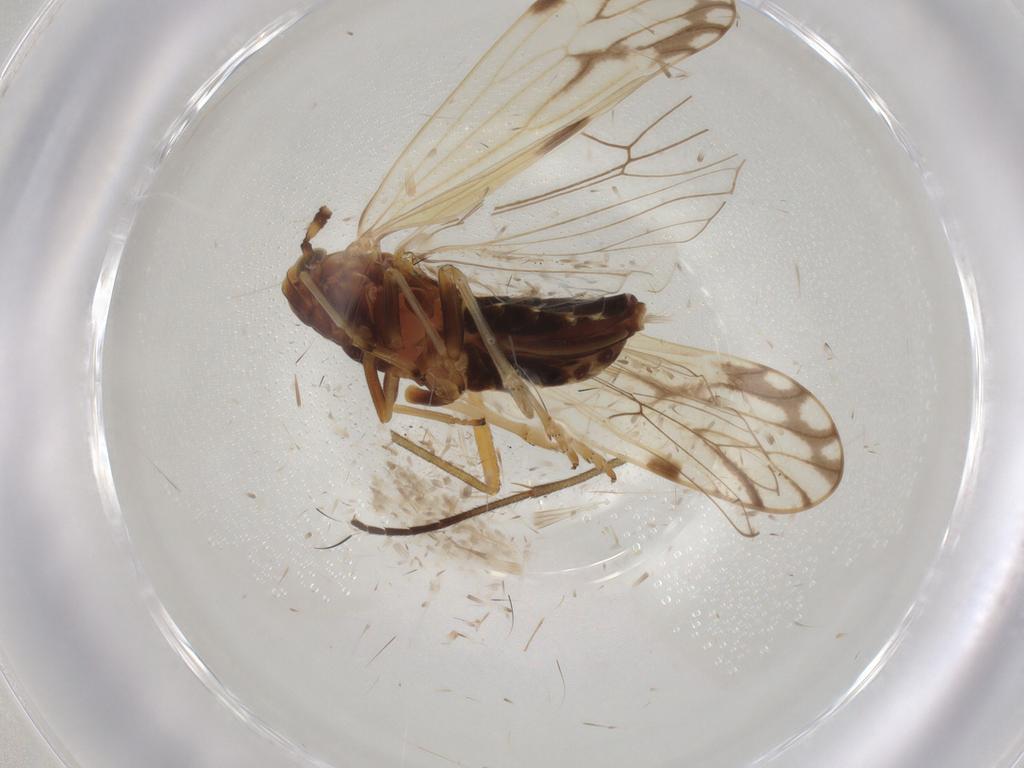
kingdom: Animalia
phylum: Arthropoda
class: Insecta
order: Hemiptera
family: Delphacidae
